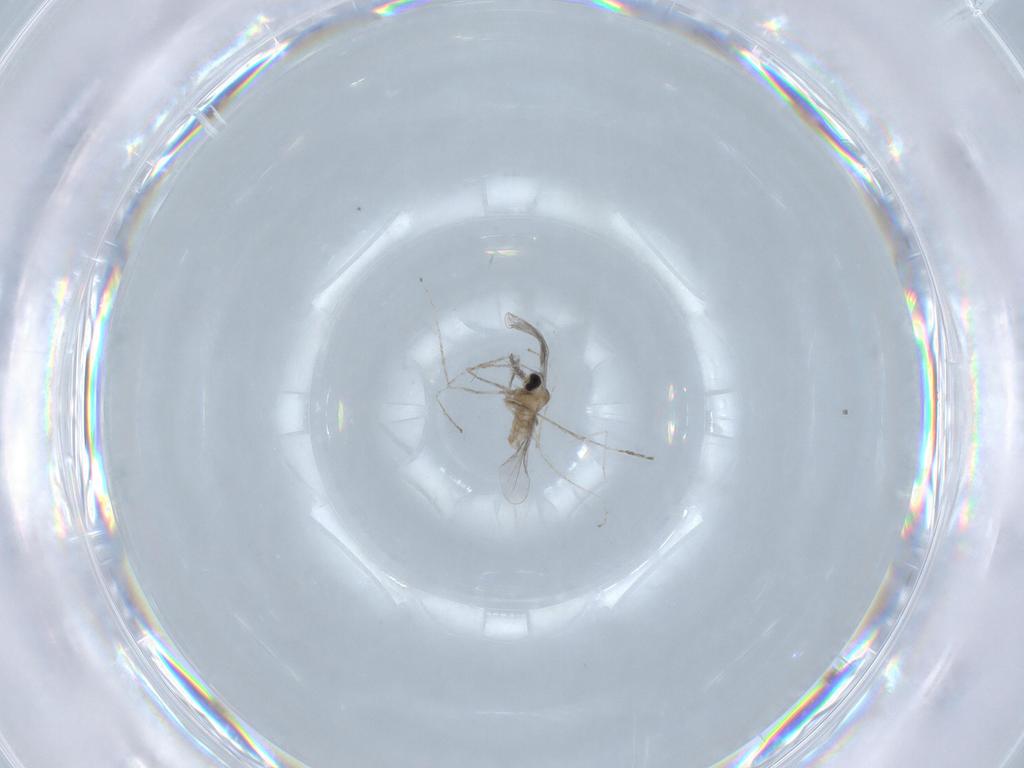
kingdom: Animalia
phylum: Arthropoda
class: Insecta
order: Diptera
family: Cecidomyiidae
